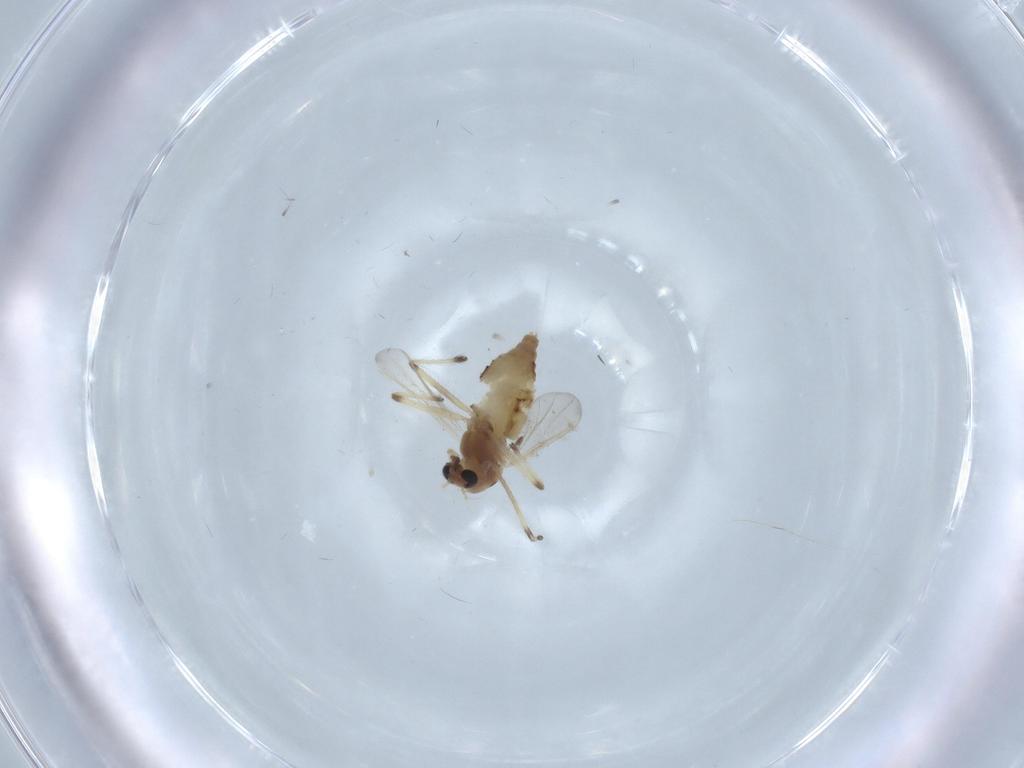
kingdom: Animalia
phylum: Arthropoda
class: Insecta
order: Diptera
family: Chironomidae
